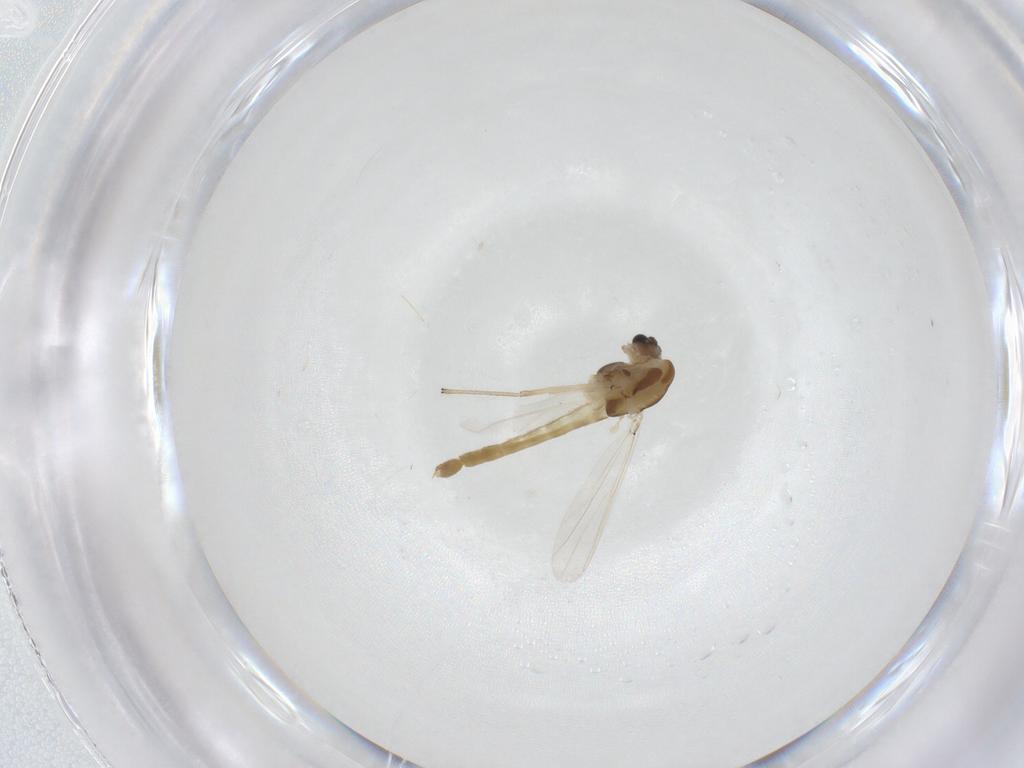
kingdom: Animalia
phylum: Arthropoda
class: Insecta
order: Diptera
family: Chironomidae
